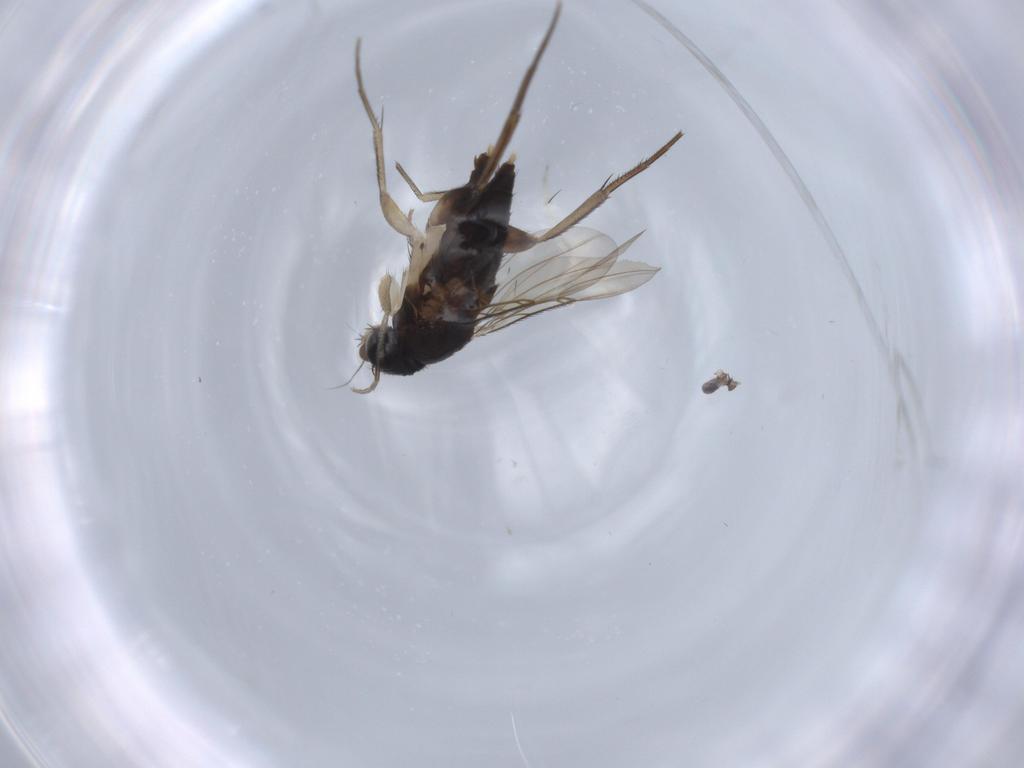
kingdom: Animalia
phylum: Arthropoda
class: Insecta
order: Diptera
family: Phoridae
